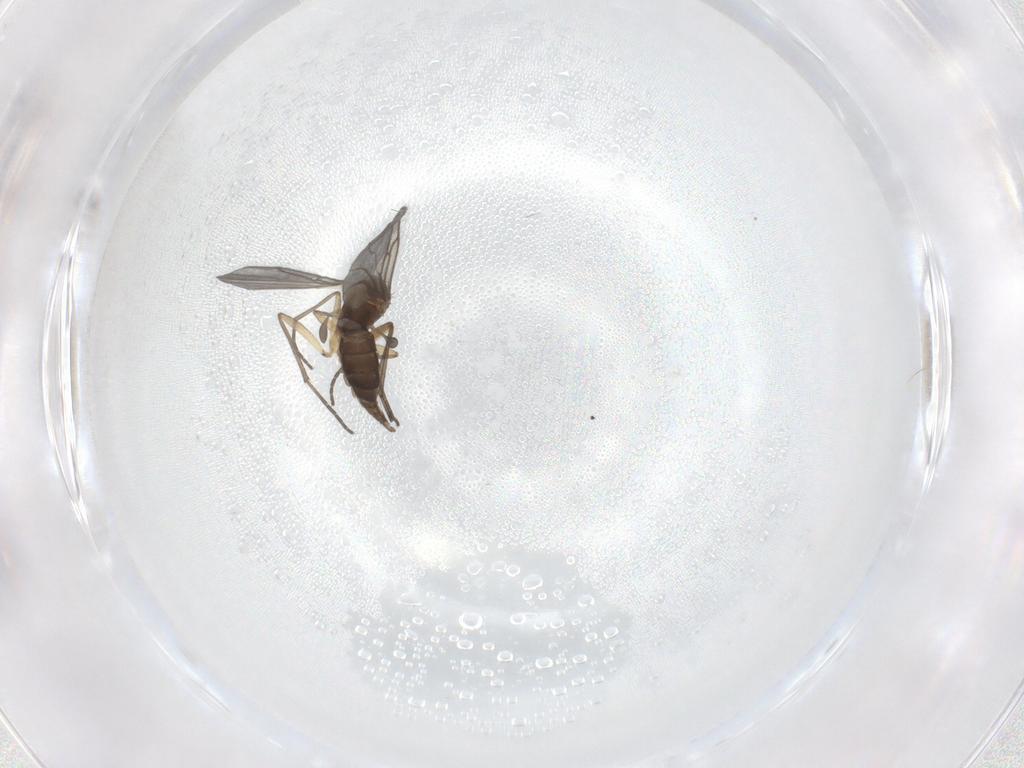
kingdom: Animalia
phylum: Arthropoda
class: Insecta
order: Diptera
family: Sciaridae
